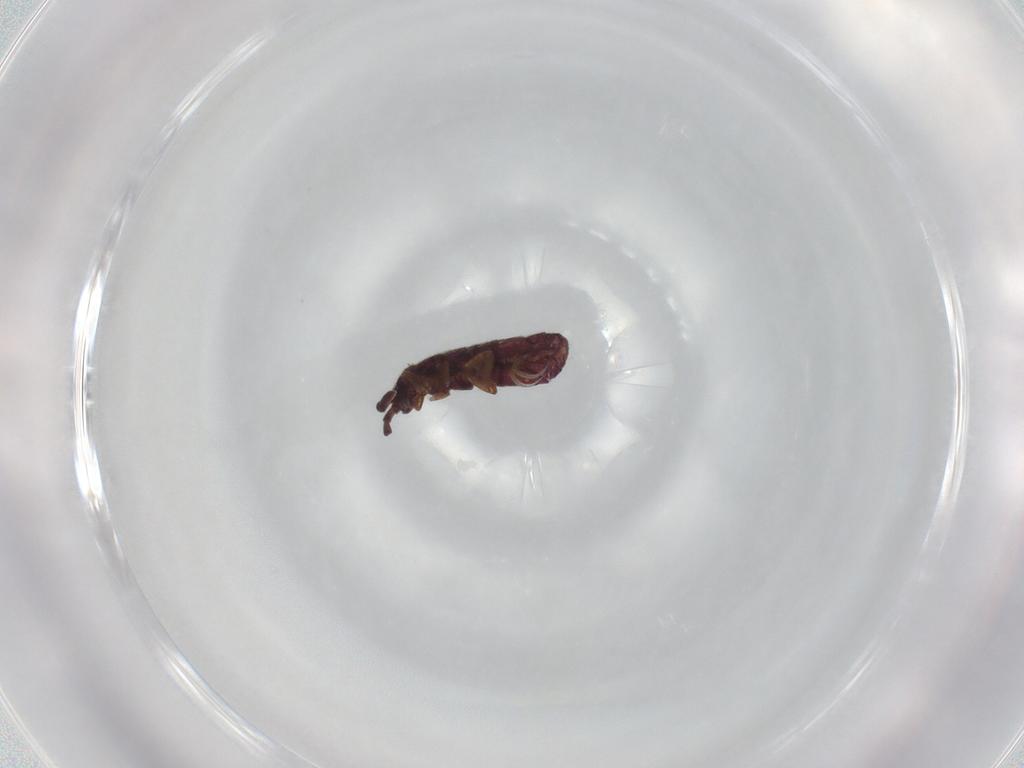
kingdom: Animalia
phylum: Arthropoda
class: Collembola
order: Entomobryomorpha
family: Isotomidae
